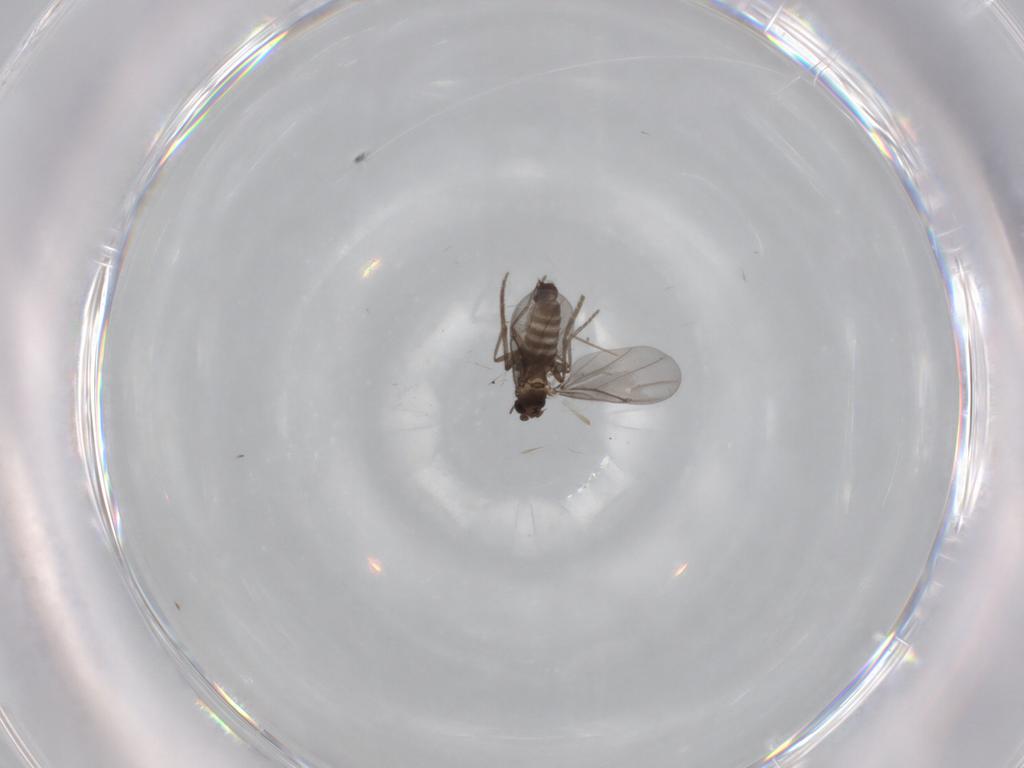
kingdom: Animalia
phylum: Arthropoda
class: Insecta
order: Diptera
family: Phoridae
